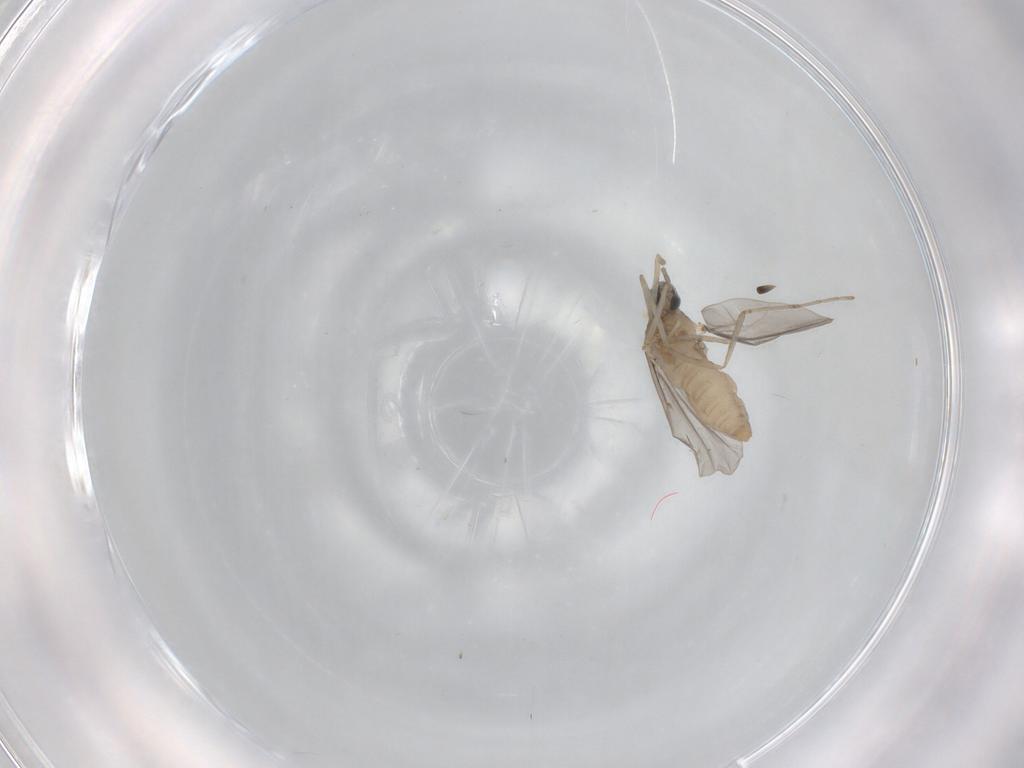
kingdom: Animalia
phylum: Arthropoda
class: Insecta
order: Diptera
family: Cecidomyiidae
